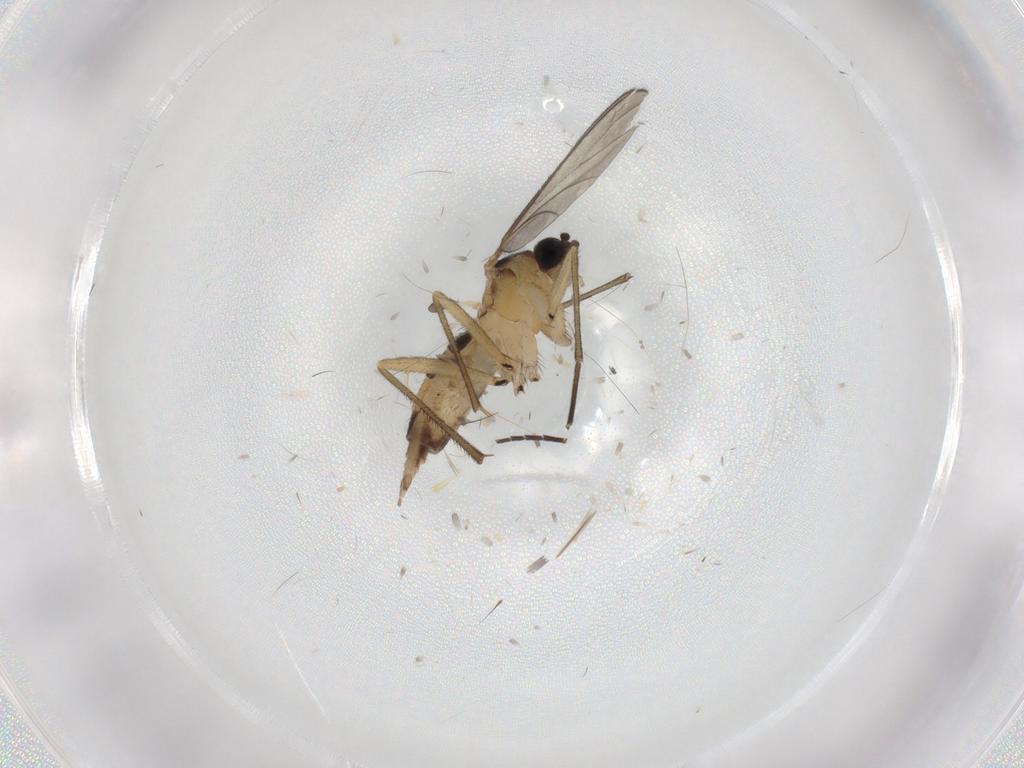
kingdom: Animalia
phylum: Arthropoda
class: Insecta
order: Diptera
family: Sciaridae
